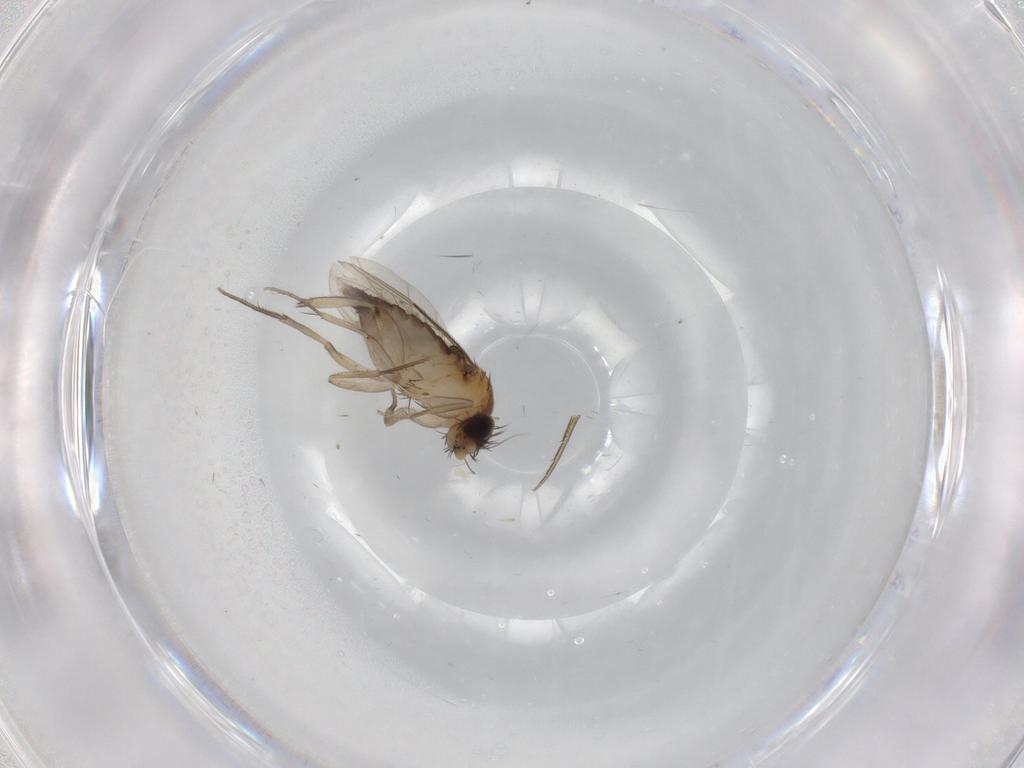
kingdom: Animalia
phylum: Arthropoda
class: Insecta
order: Diptera
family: Phoridae
